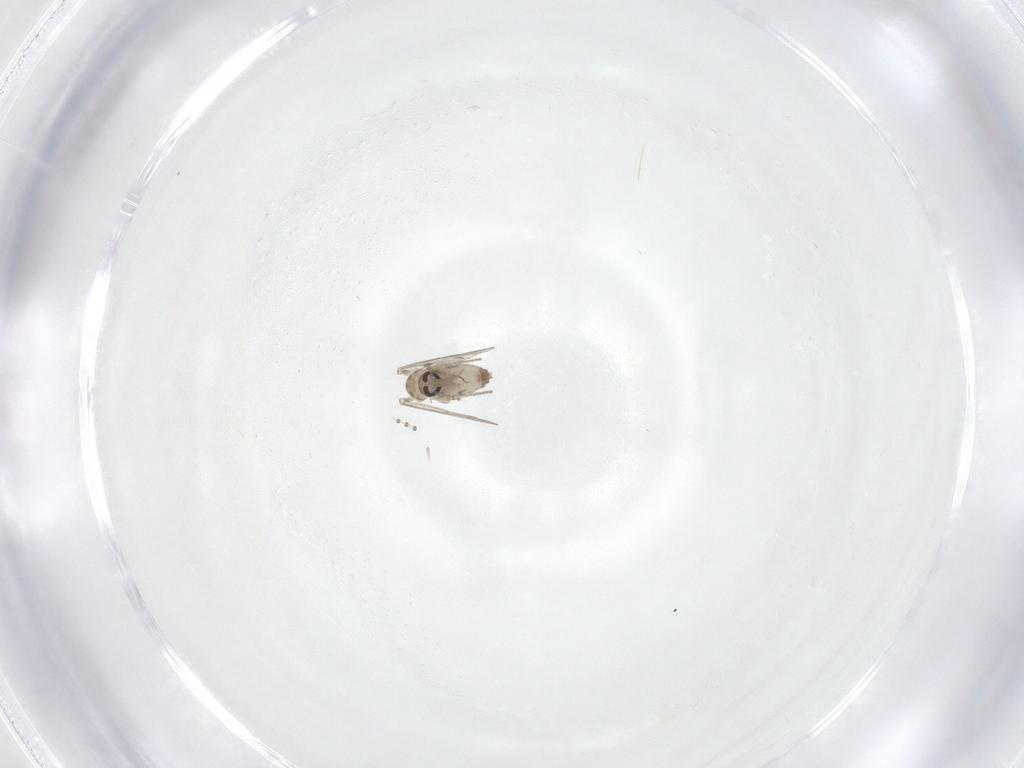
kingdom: Animalia
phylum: Arthropoda
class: Insecta
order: Diptera
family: Psychodidae
